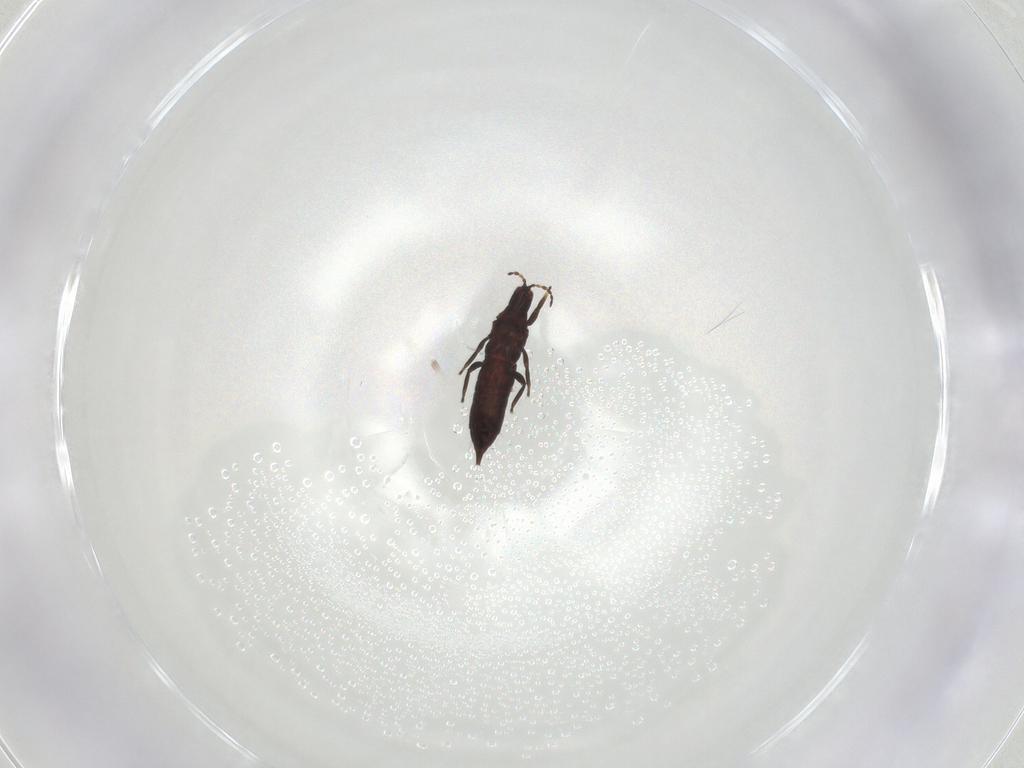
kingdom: Animalia
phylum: Arthropoda
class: Insecta
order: Thysanoptera
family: Phlaeothripidae
